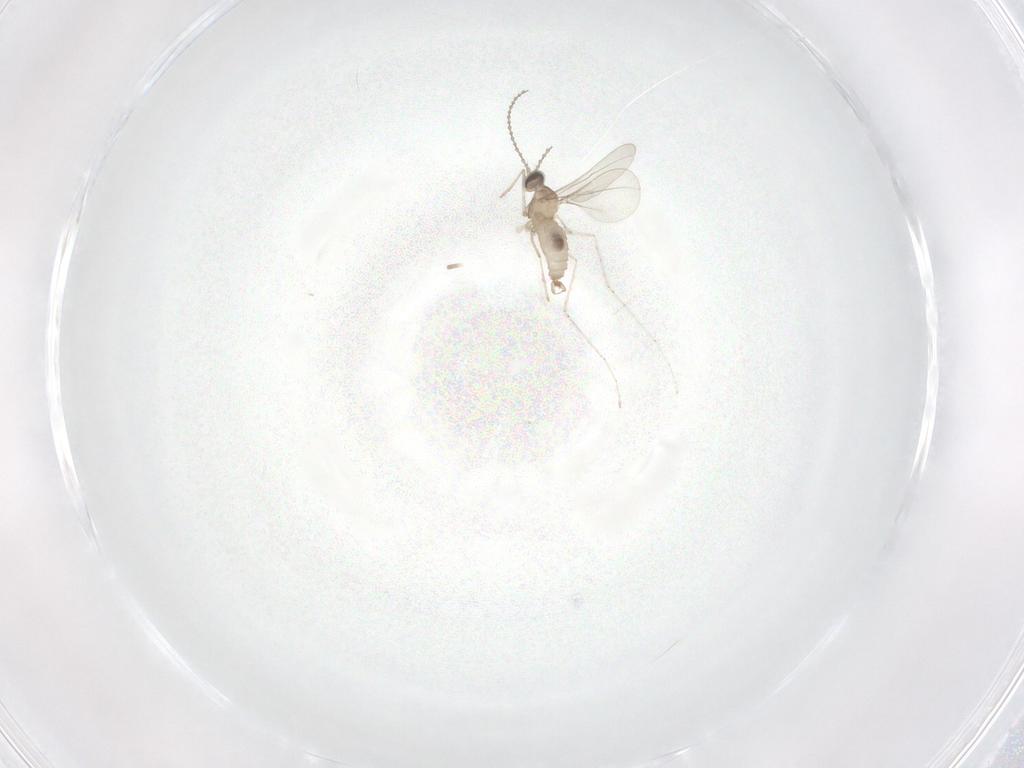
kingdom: Animalia
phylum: Arthropoda
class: Insecta
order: Diptera
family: Cecidomyiidae
